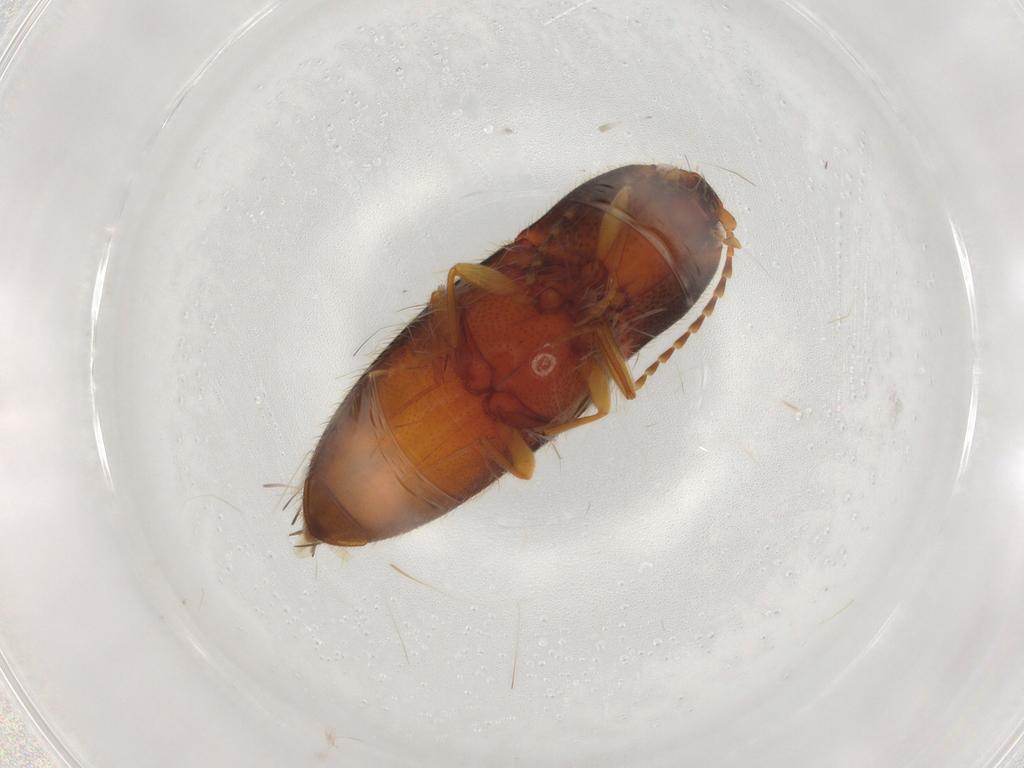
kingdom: Animalia
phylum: Arthropoda
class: Insecta
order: Coleoptera
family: Elateridae
